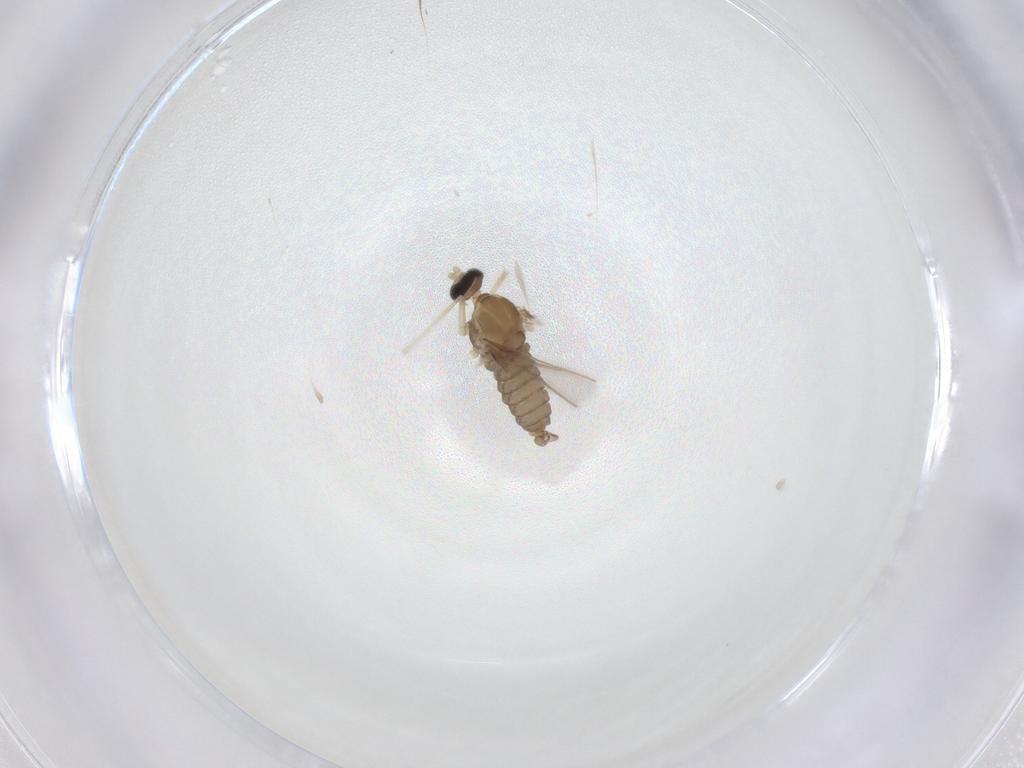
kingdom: Animalia
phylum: Arthropoda
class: Insecta
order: Diptera
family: Cecidomyiidae
